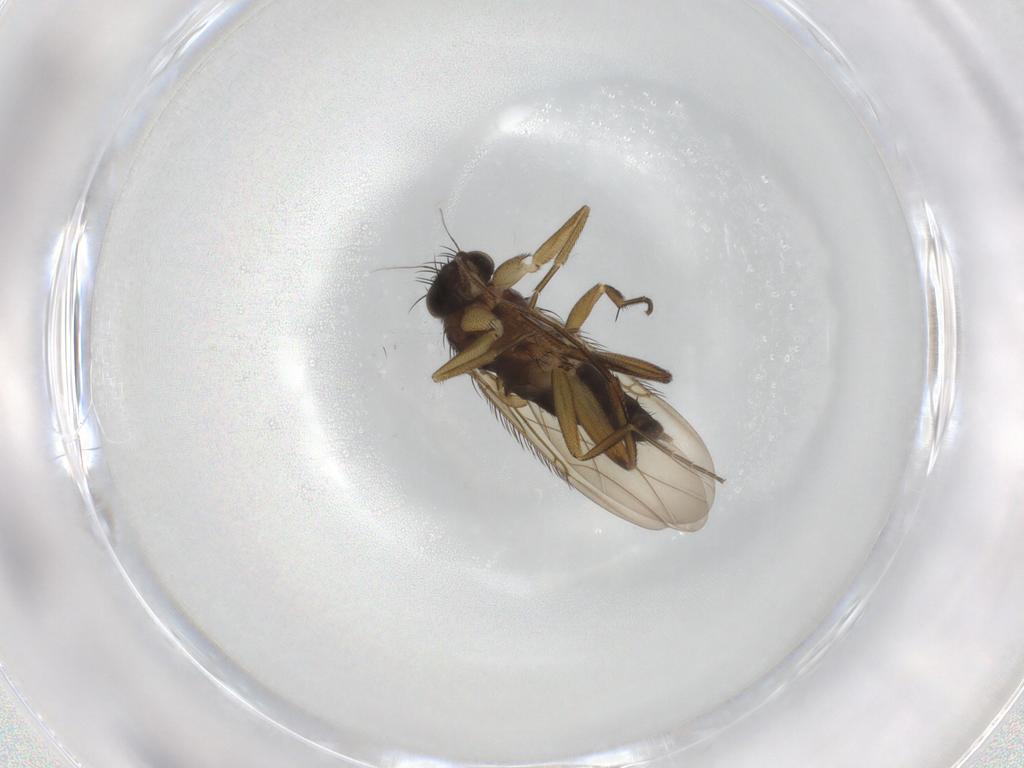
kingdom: Animalia
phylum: Arthropoda
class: Insecta
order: Diptera
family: Phoridae
